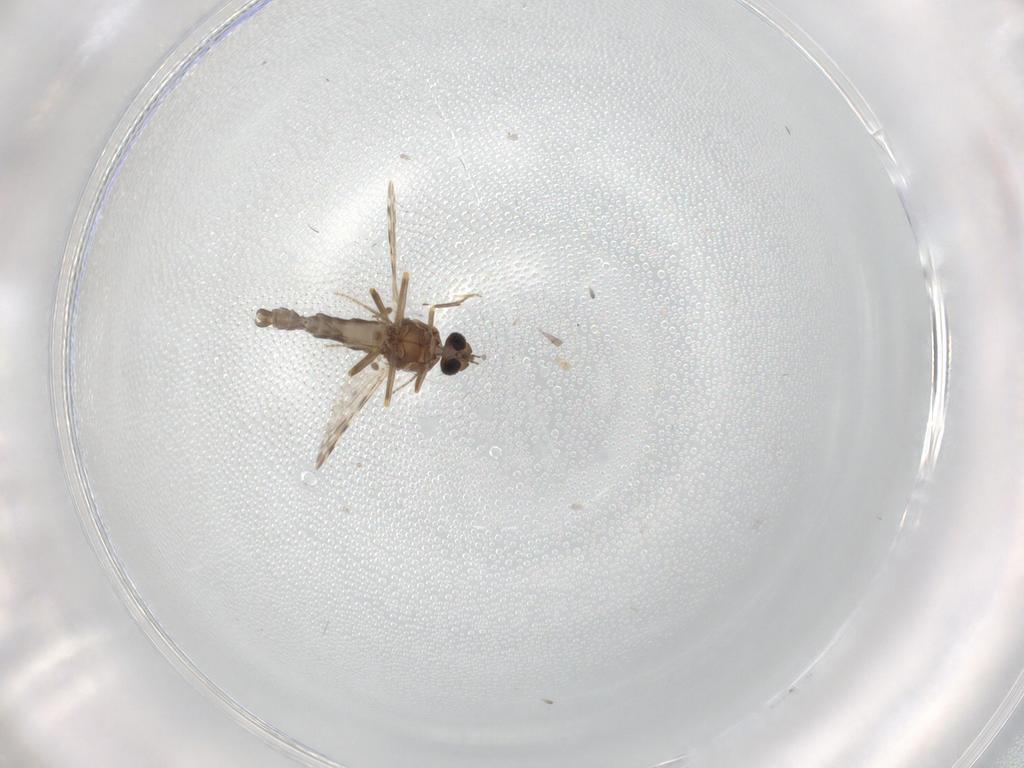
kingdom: Animalia
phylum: Arthropoda
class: Insecta
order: Diptera
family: Ceratopogonidae
